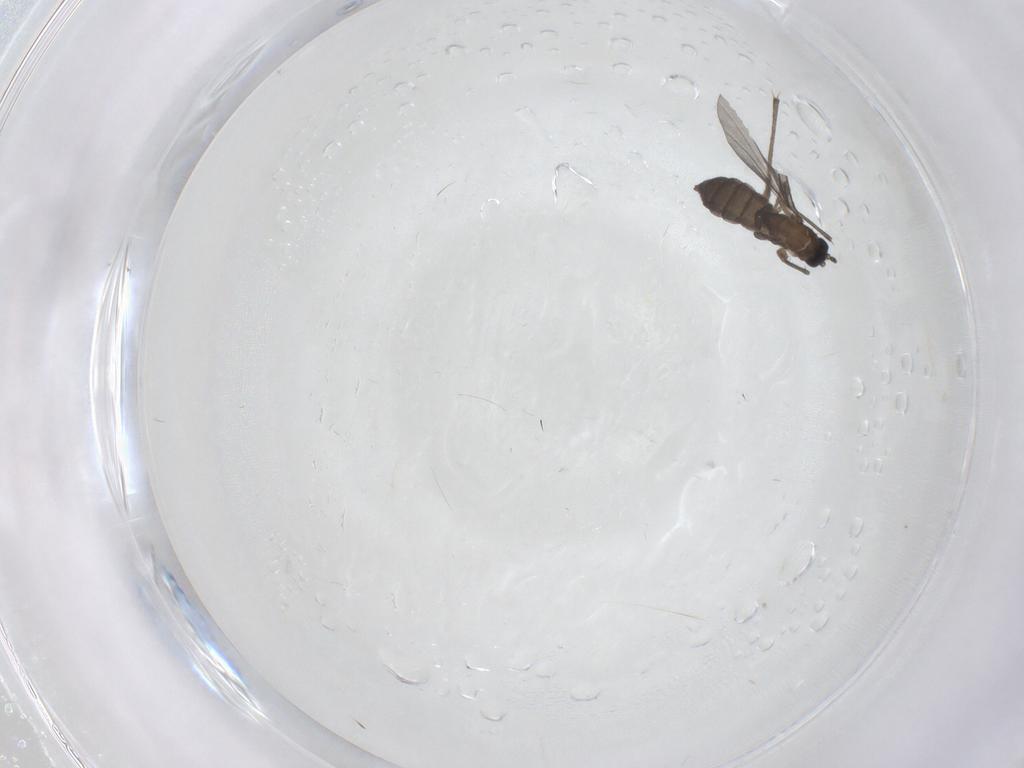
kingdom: Animalia
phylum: Arthropoda
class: Insecta
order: Diptera
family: Sciaridae
